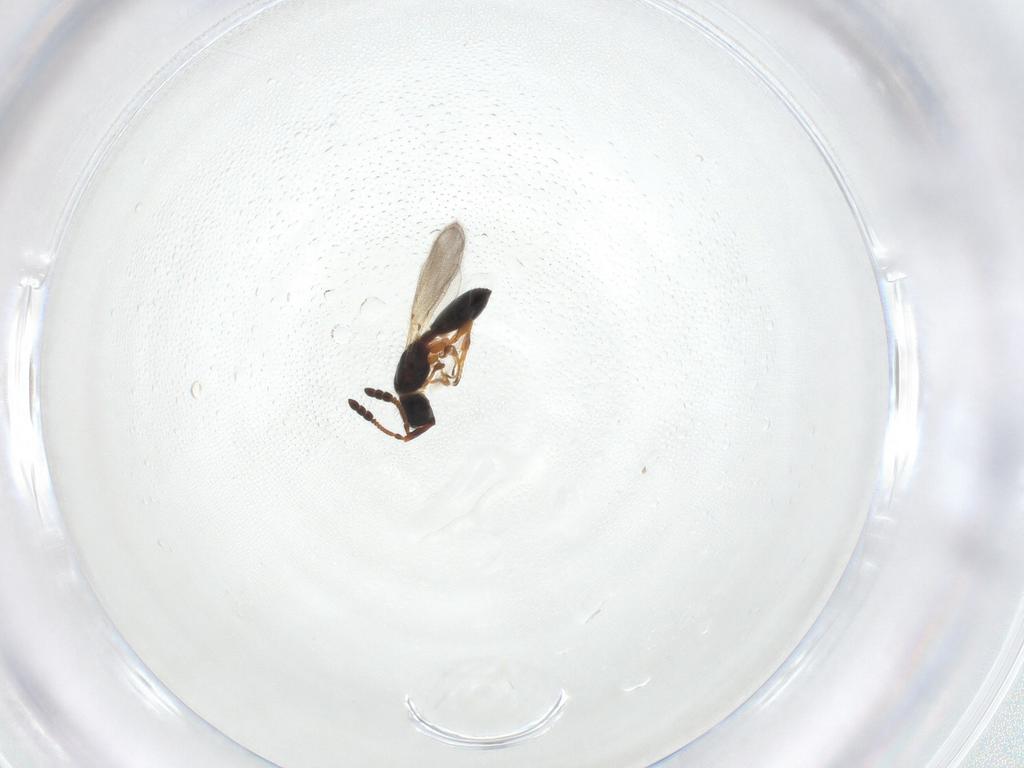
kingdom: Animalia
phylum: Arthropoda
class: Insecta
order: Hymenoptera
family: Diapriidae
